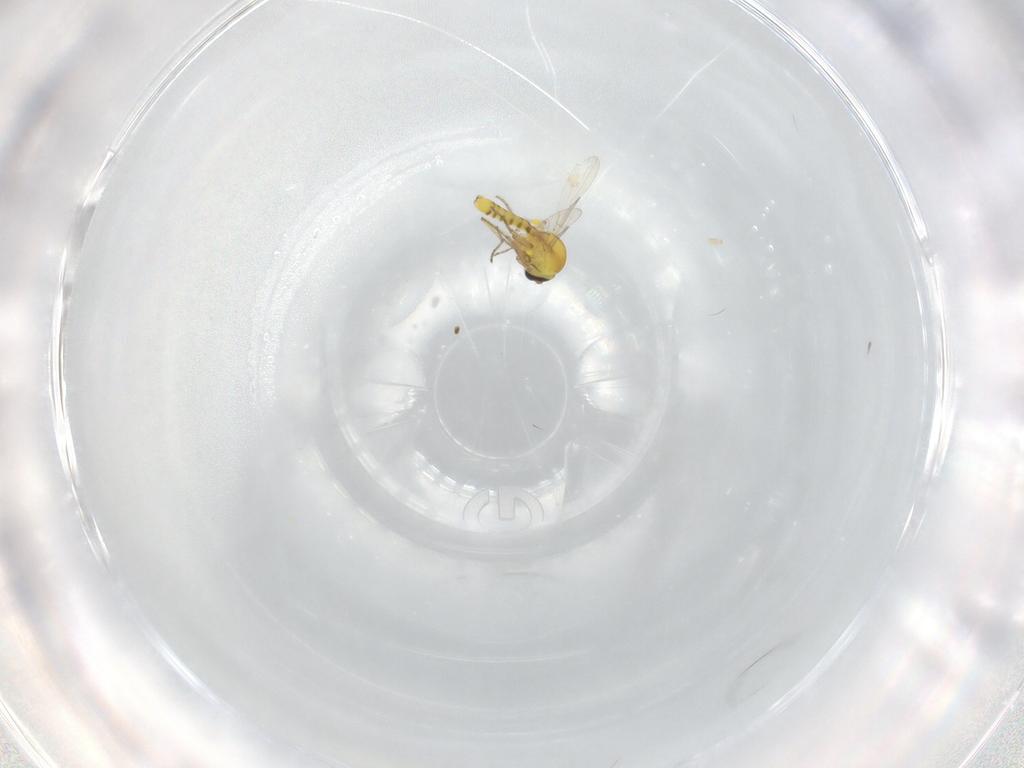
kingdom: Animalia
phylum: Arthropoda
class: Insecta
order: Diptera
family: Ceratopogonidae
